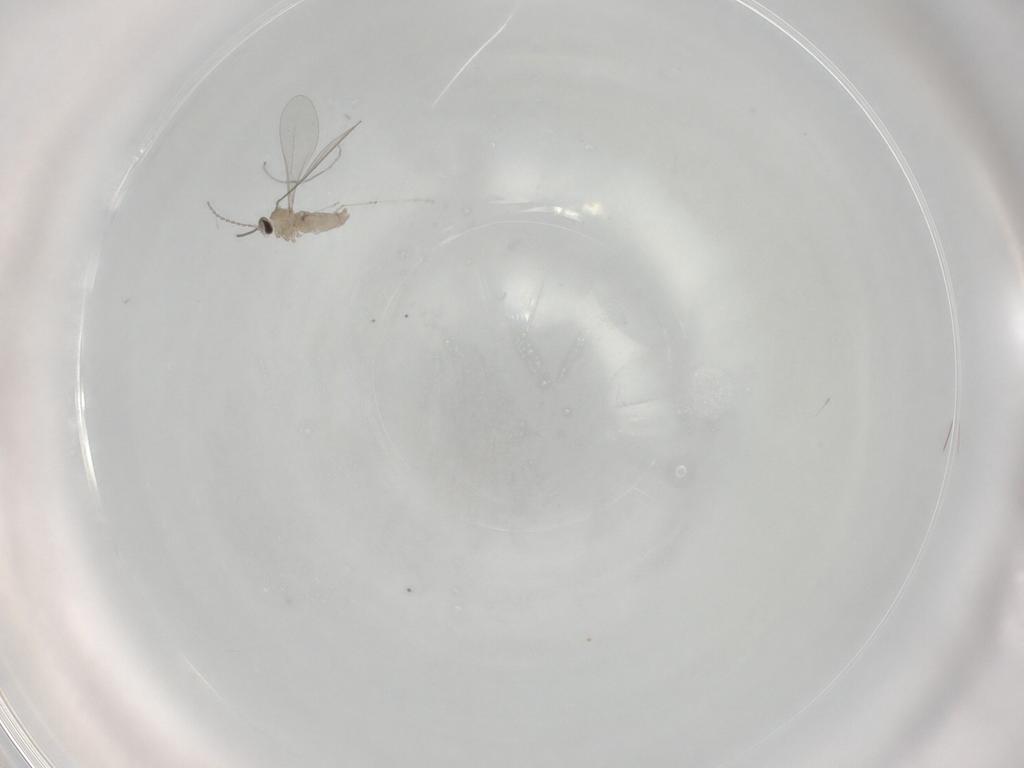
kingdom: Animalia
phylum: Arthropoda
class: Insecta
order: Diptera
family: Cecidomyiidae
